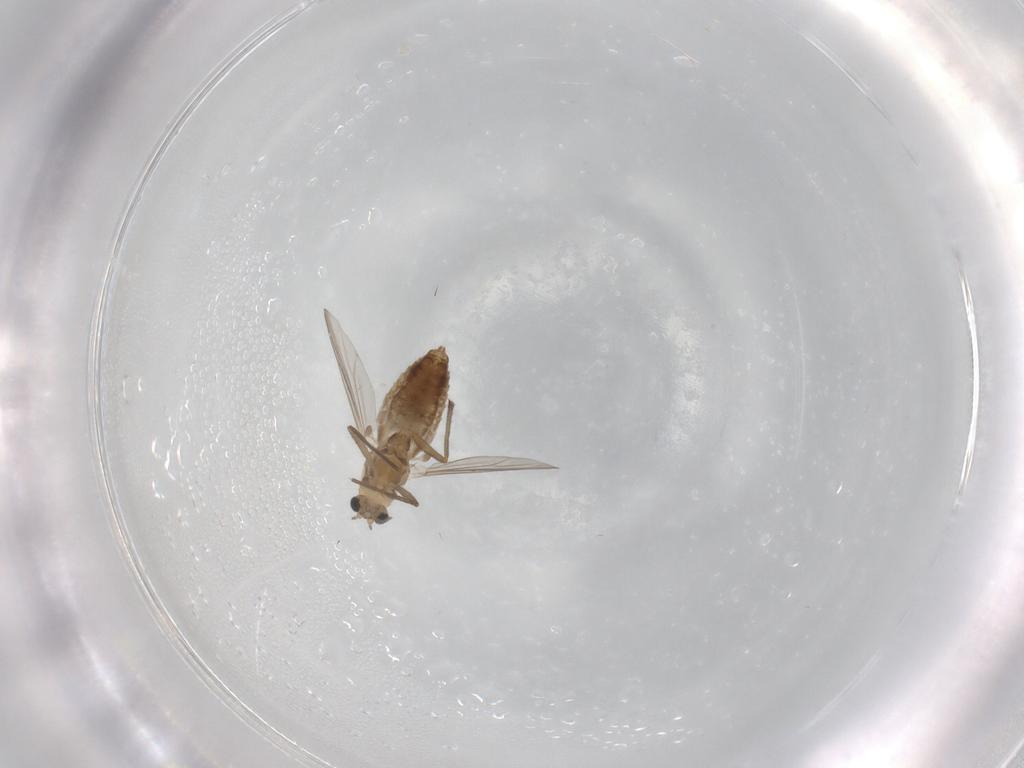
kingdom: Animalia
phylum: Arthropoda
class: Insecta
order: Diptera
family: Chironomidae
